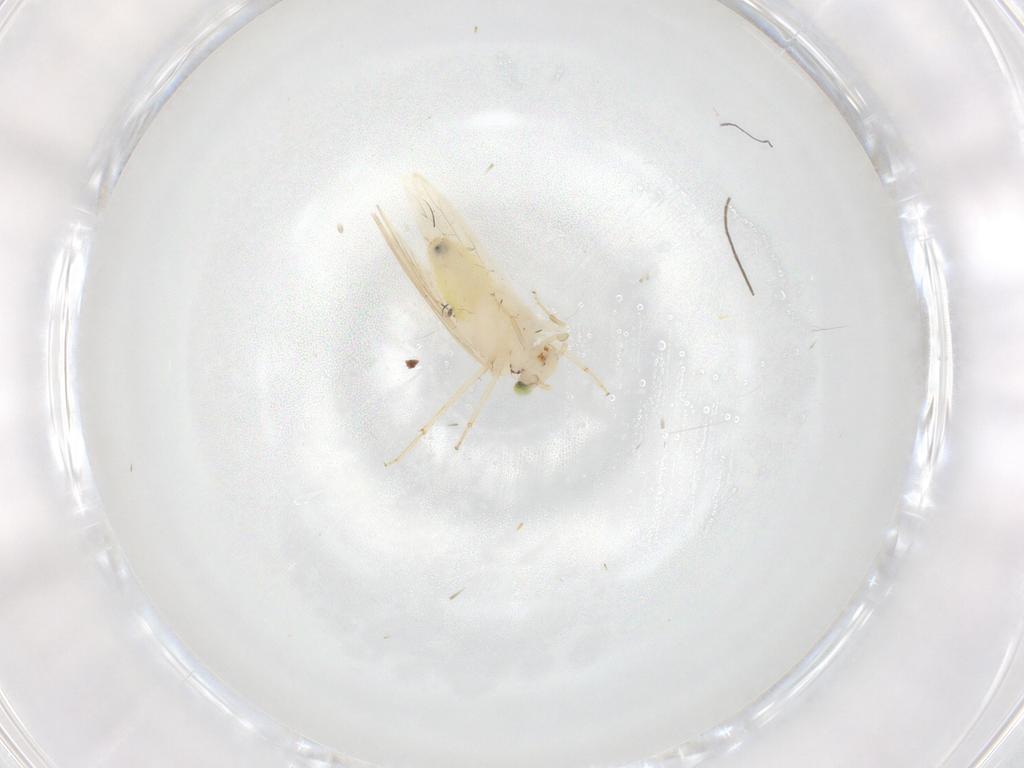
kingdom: Animalia
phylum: Arthropoda
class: Insecta
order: Psocodea
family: Lepidopsocidae
